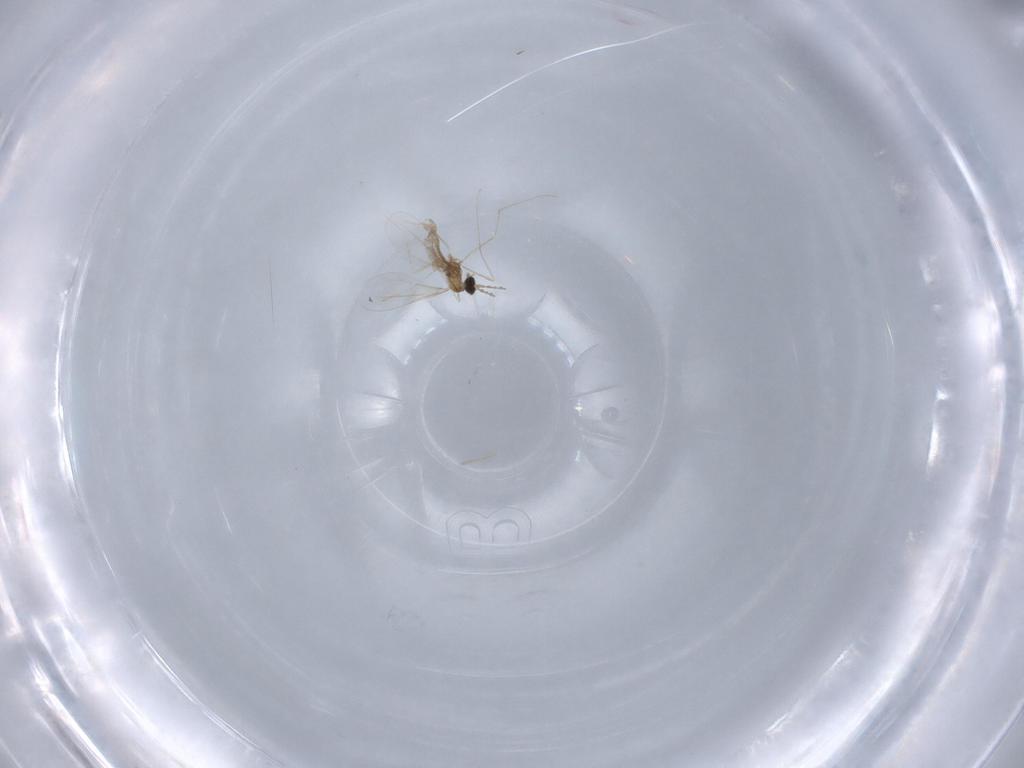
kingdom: Animalia
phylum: Arthropoda
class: Insecta
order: Diptera
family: Cecidomyiidae
